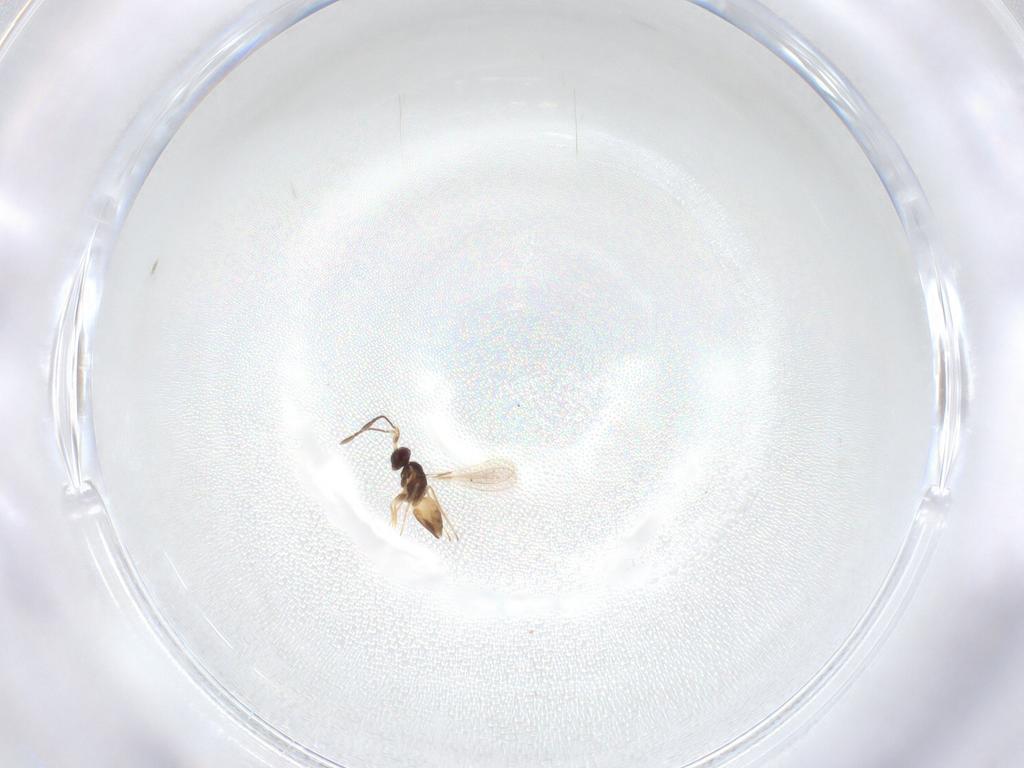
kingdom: Animalia
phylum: Arthropoda
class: Insecta
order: Hymenoptera
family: Mymaridae
